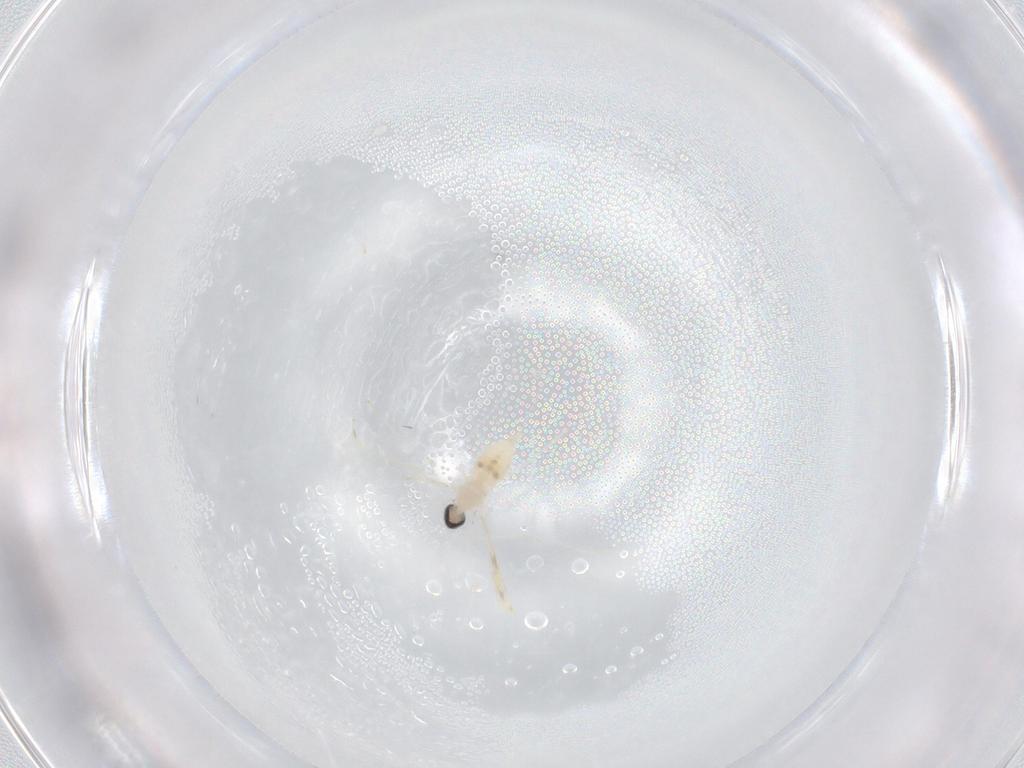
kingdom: Animalia
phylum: Arthropoda
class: Insecta
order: Diptera
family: Cecidomyiidae
